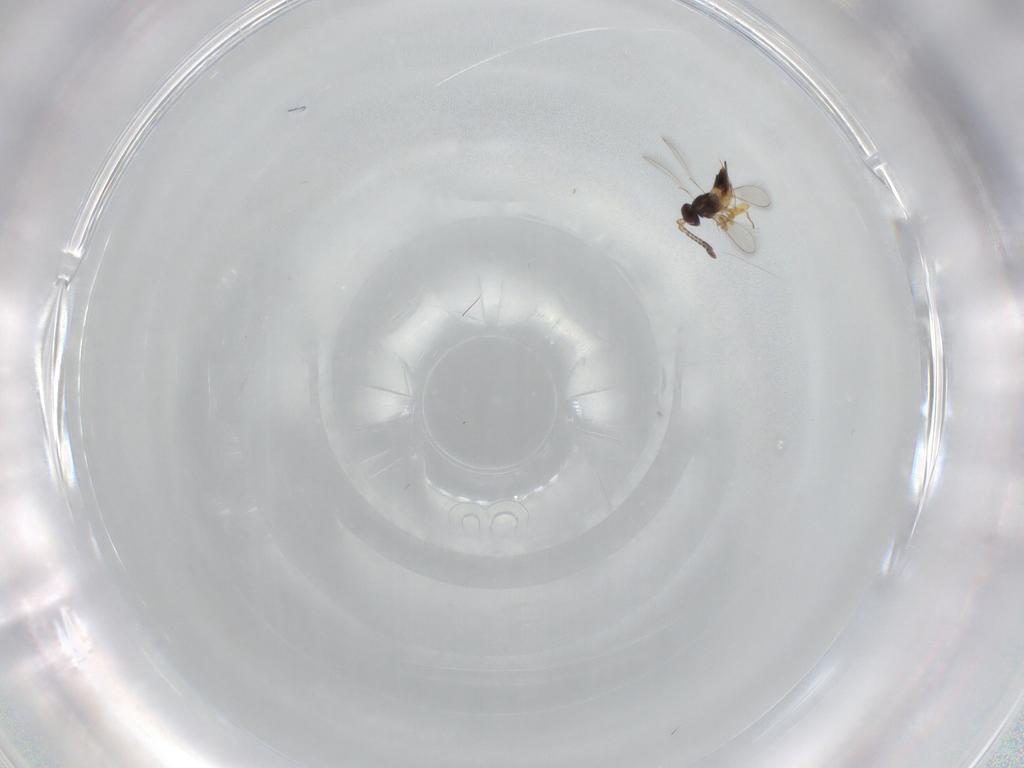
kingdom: Animalia
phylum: Arthropoda
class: Insecta
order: Hymenoptera
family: Mymaridae
